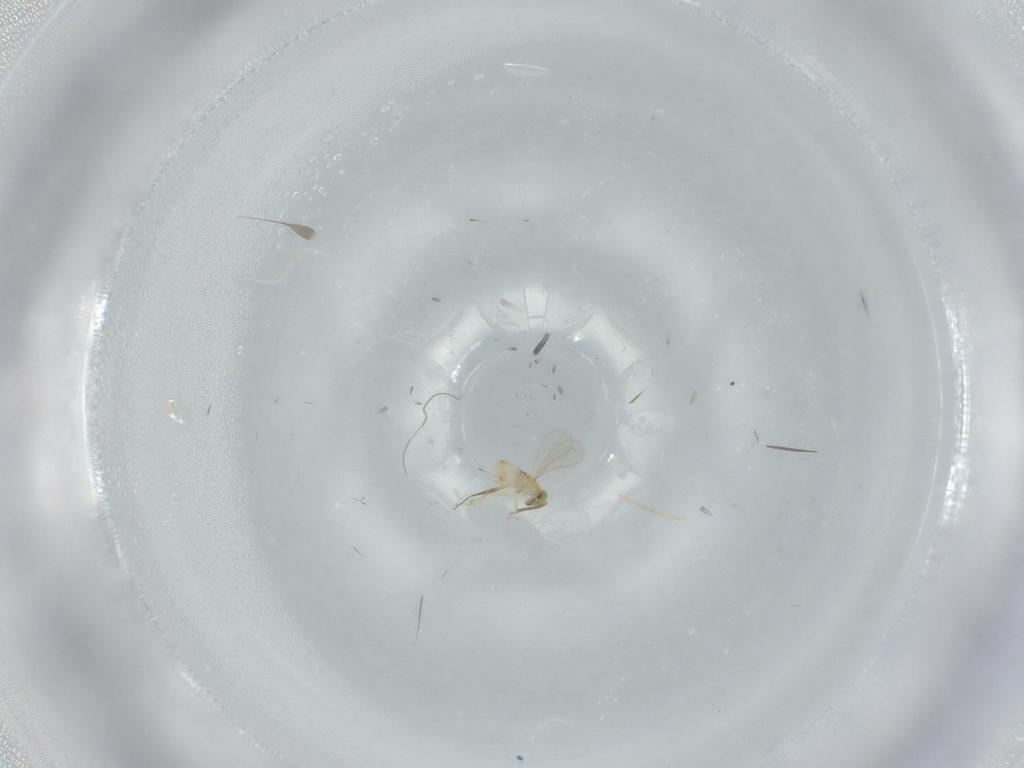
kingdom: Animalia
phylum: Arthropoda
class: Insecta
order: Hymenoptera
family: Aphelinidae
